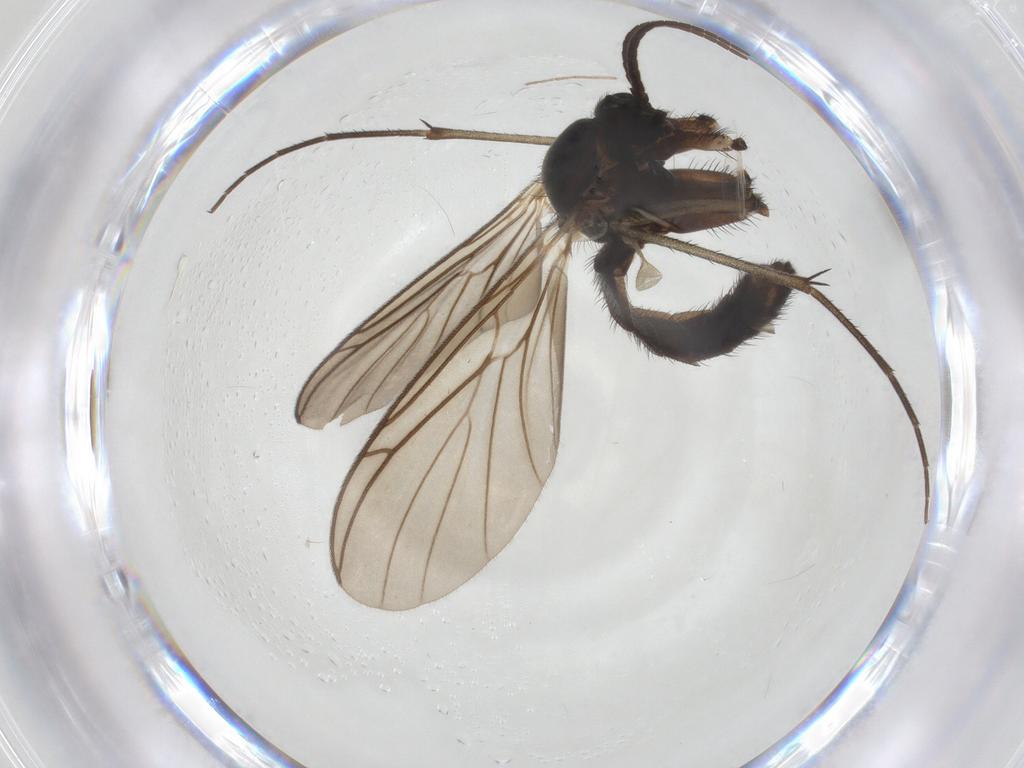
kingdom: Animalia
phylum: Arthropoda
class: Insecta
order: Diptera
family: Keroplatidae
